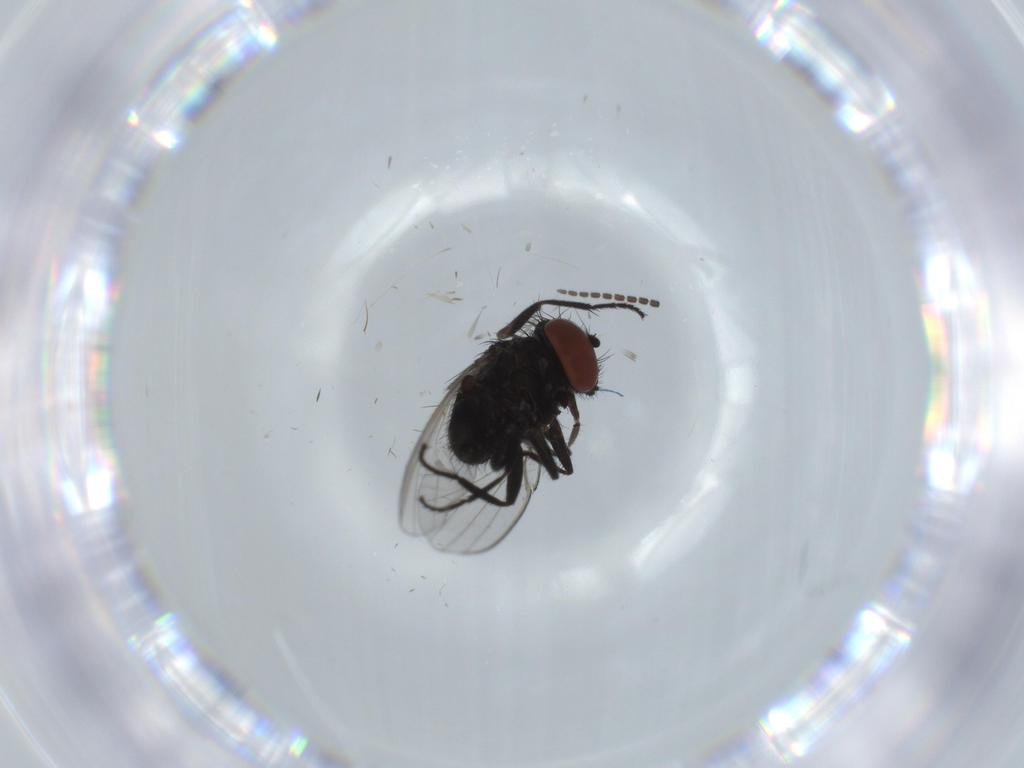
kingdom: Animalia
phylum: Arthropoda
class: Insecta
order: Diptera
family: Milichiidae
